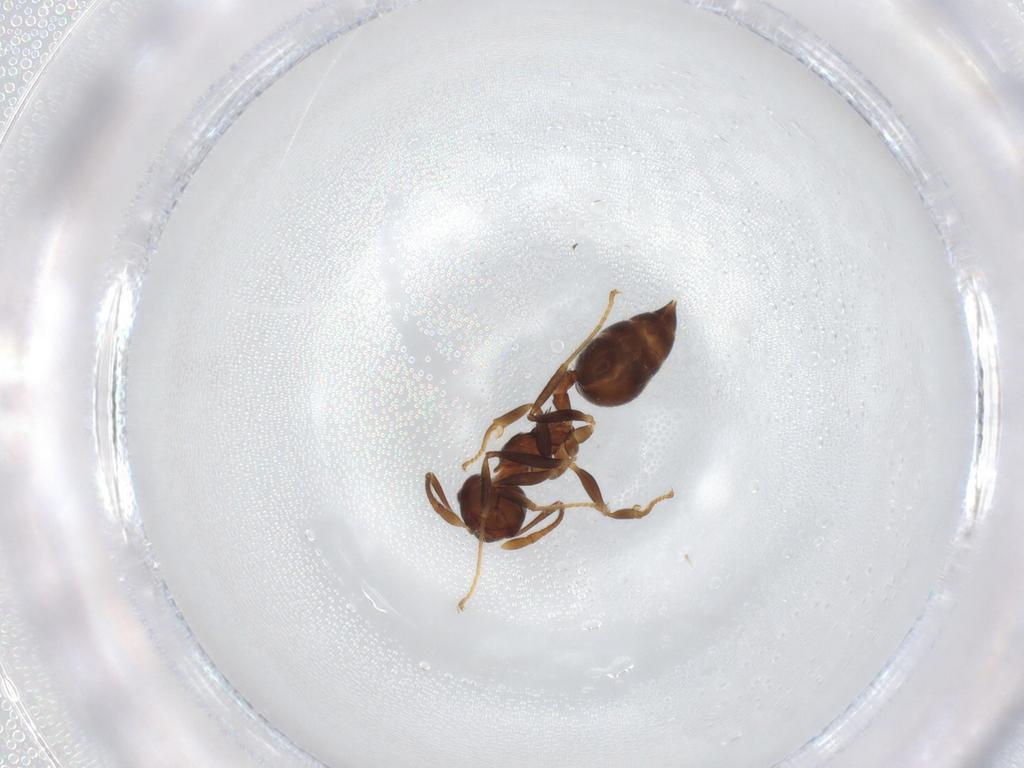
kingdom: Animalia
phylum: Arthropoda
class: Insecta
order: Hymenoptera
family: Formicidae
